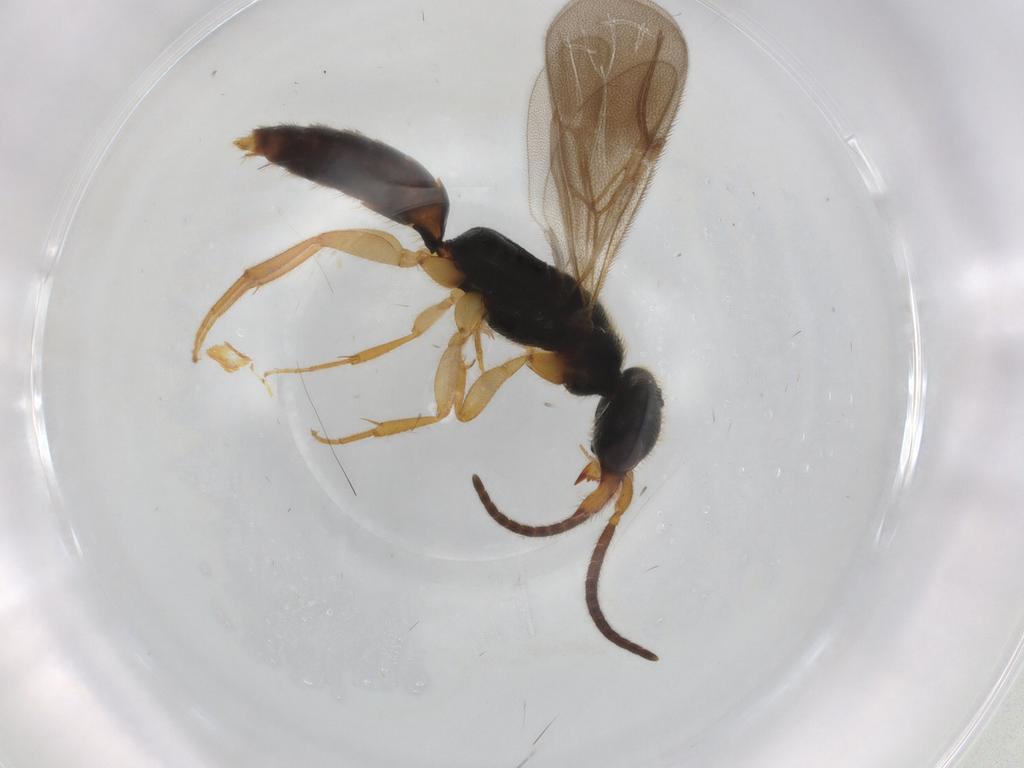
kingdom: Animalia
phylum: Arthropoda
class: Insecta
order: Hymenoptera
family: Bethylidae
